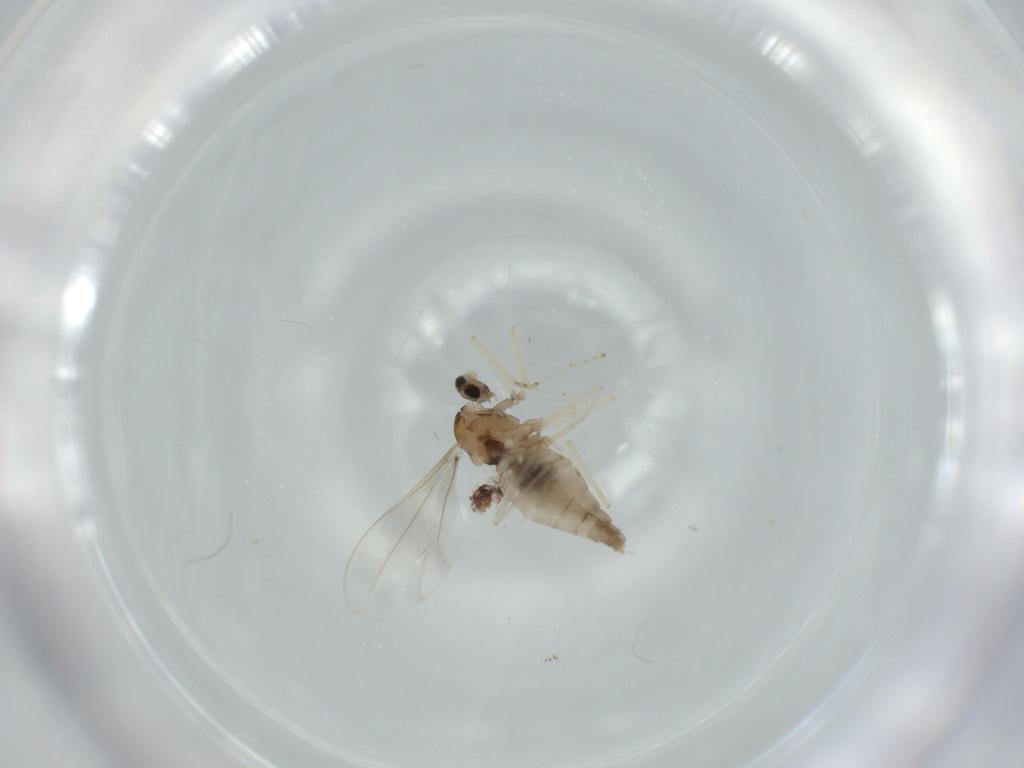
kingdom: Animalia
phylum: Arthropoda
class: Insecta
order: Diptera
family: Cecidomyiidae
